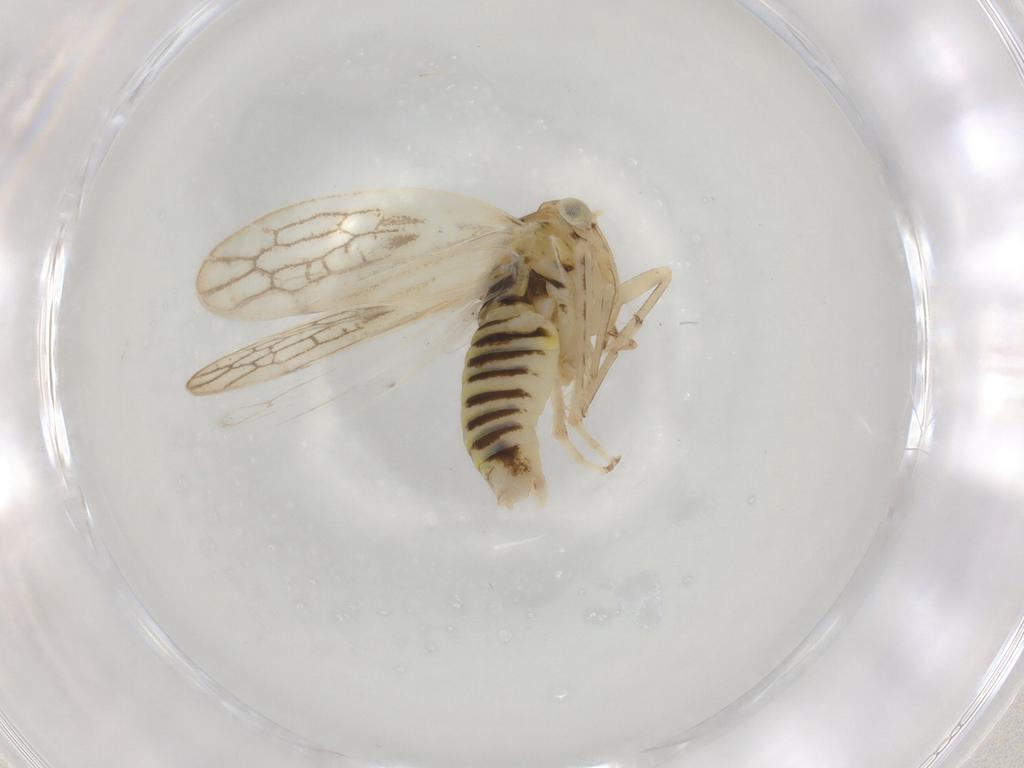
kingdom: Animalia
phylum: Arthropoda
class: Insecta
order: Hemiptera
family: Cicadellidae
